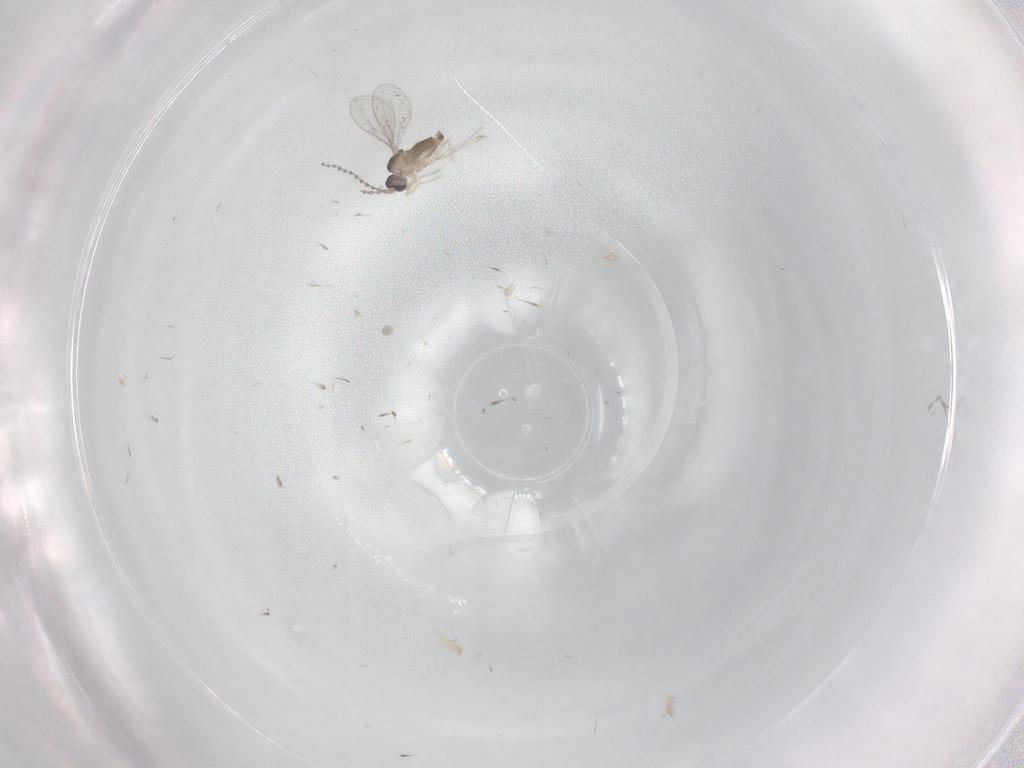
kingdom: Animalia
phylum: Arthropoda
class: Insecta
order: Diptera
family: Cecidomyiidae
